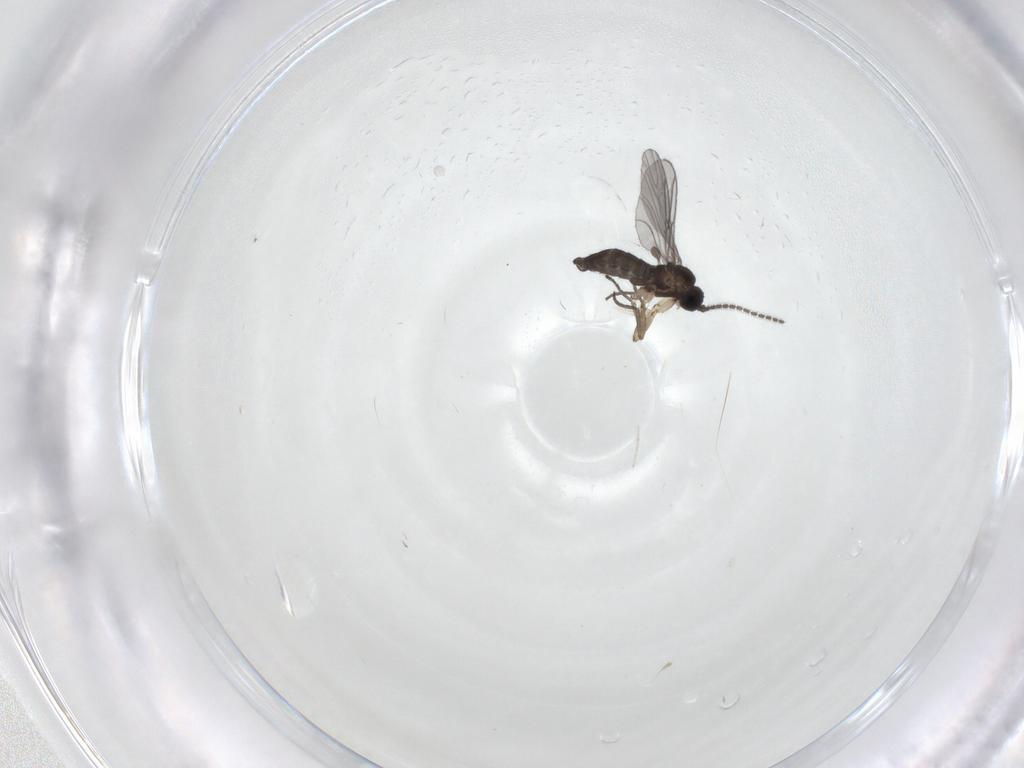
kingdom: Animalia
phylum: Arthropoda
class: Insecta
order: Diptera
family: Sciaridae
